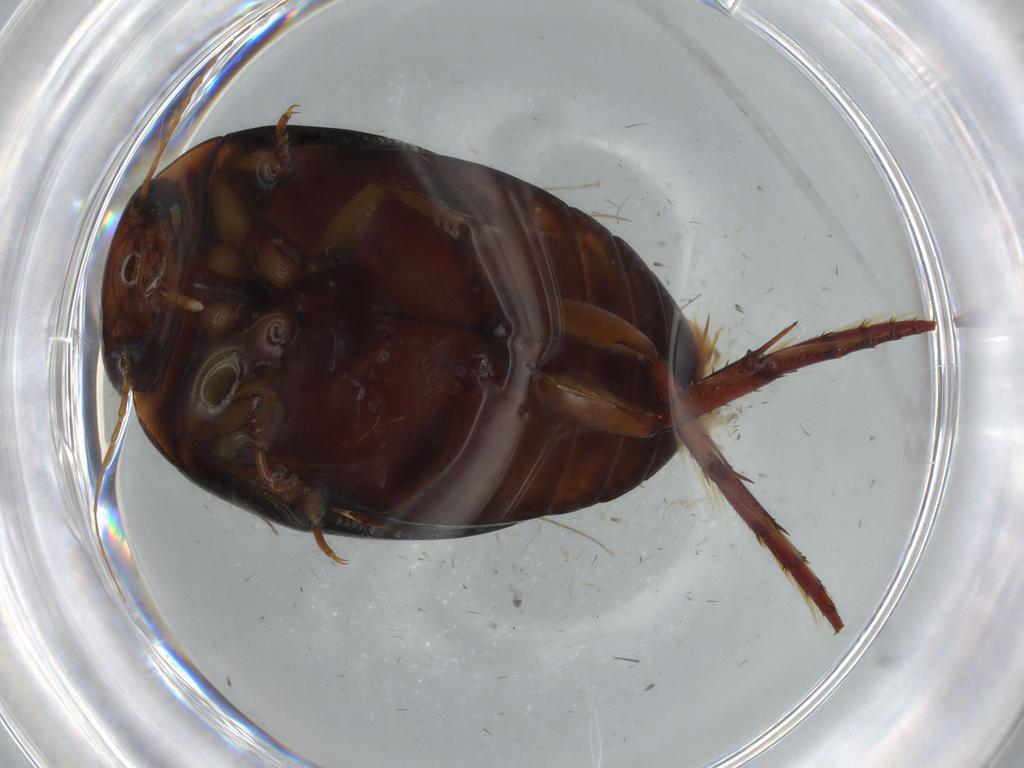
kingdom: Animalia
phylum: Arthropoda
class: Insecta
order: Coleoptera
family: Dytiscidae
